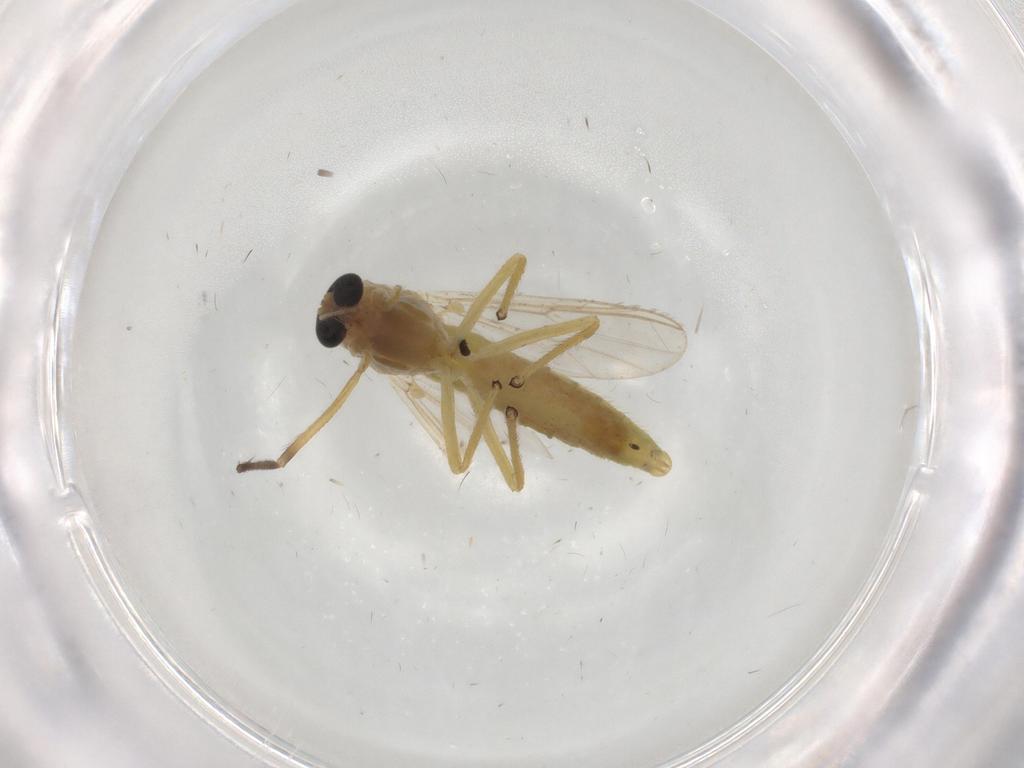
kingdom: Animalia
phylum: Arthropoda
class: Insecta
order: Diptera
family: Chironomidae
